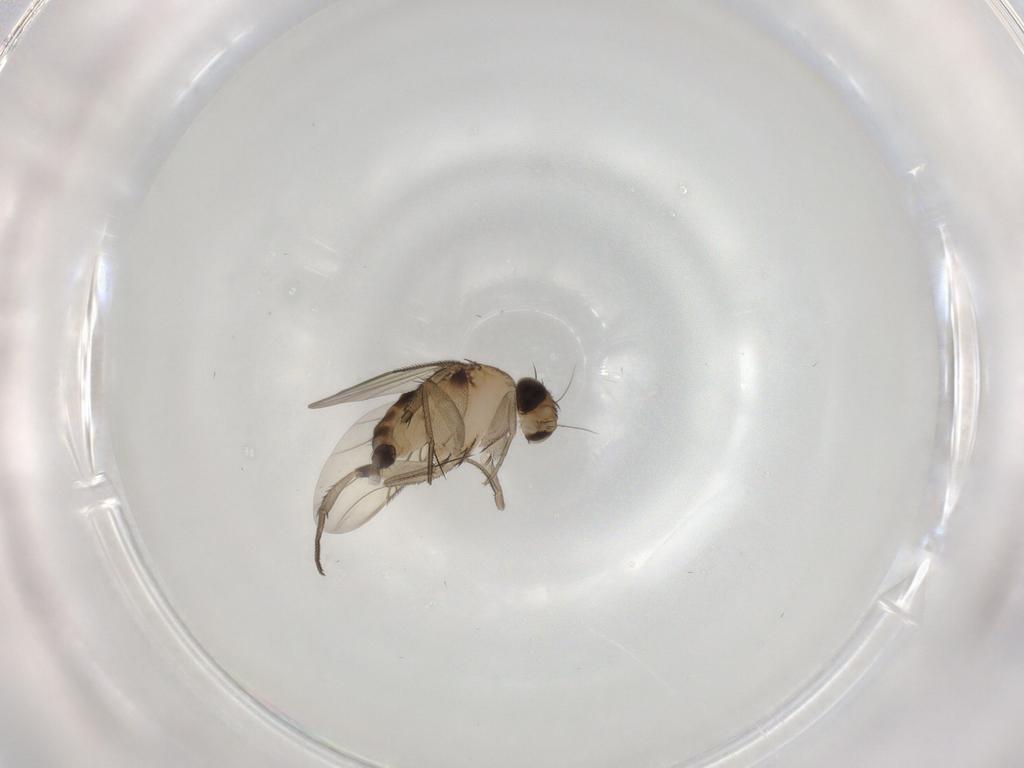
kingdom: Animalia
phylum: Arthropoda
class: Insecta
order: Diptera
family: Phoridae
